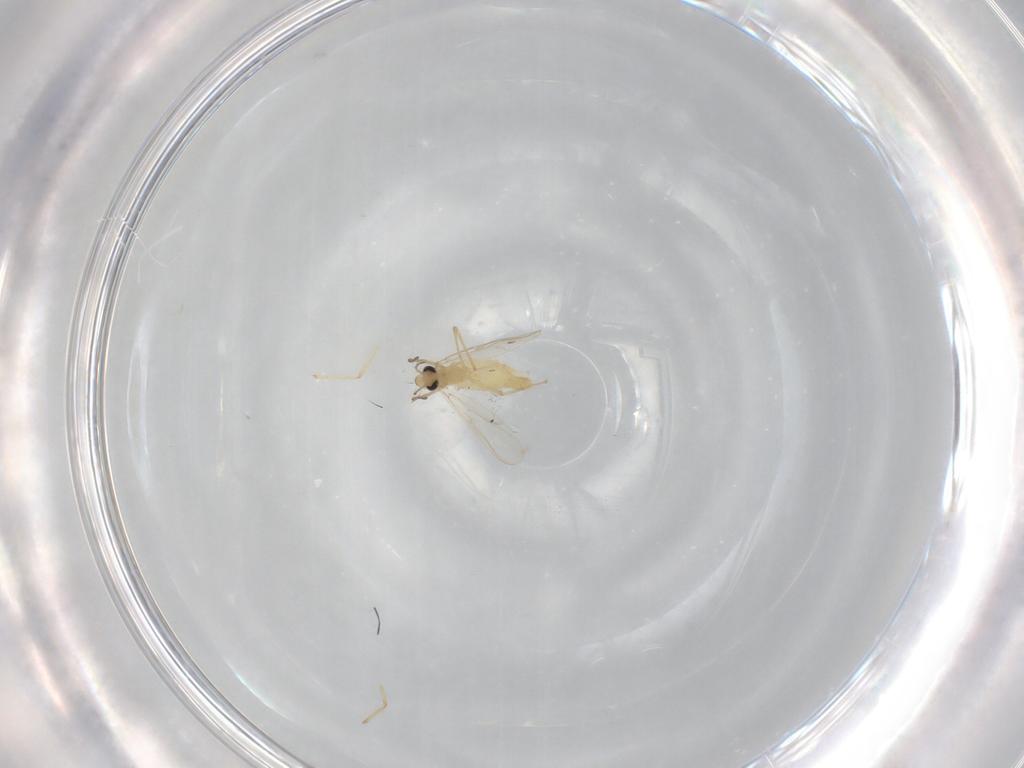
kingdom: Animalia
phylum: Arthropoda
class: Insecta
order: Diptera
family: Chironomidae
